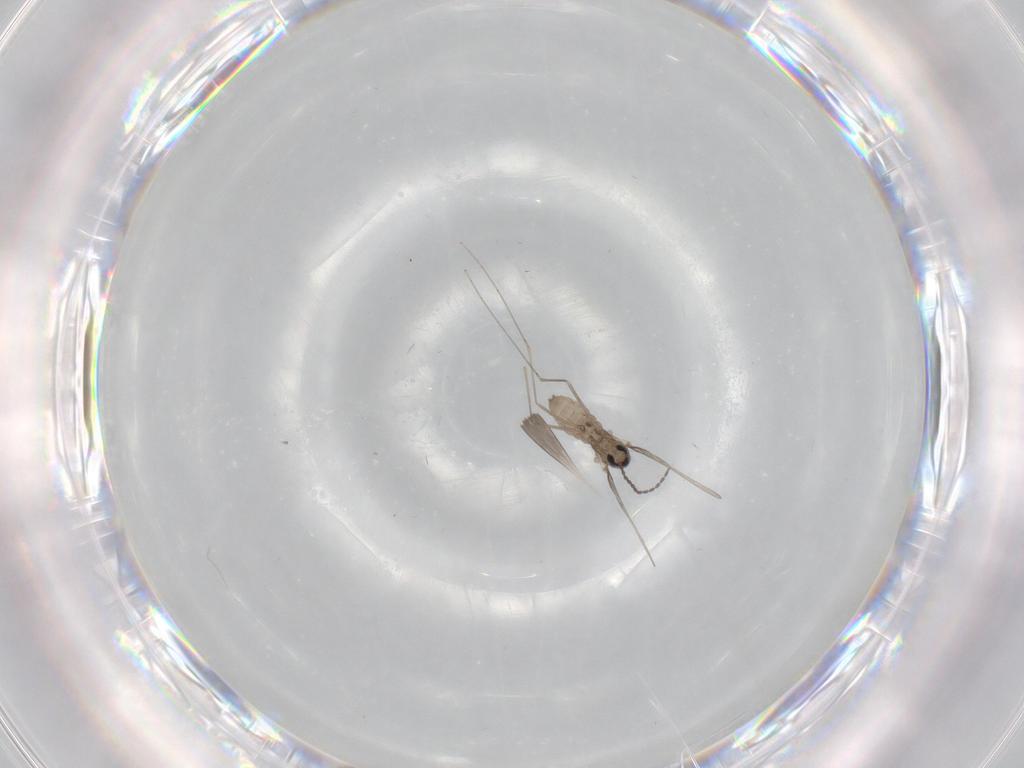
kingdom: Animalia
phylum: Arthropoda
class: Insecta
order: Diptera
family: Cecidomyiidae
